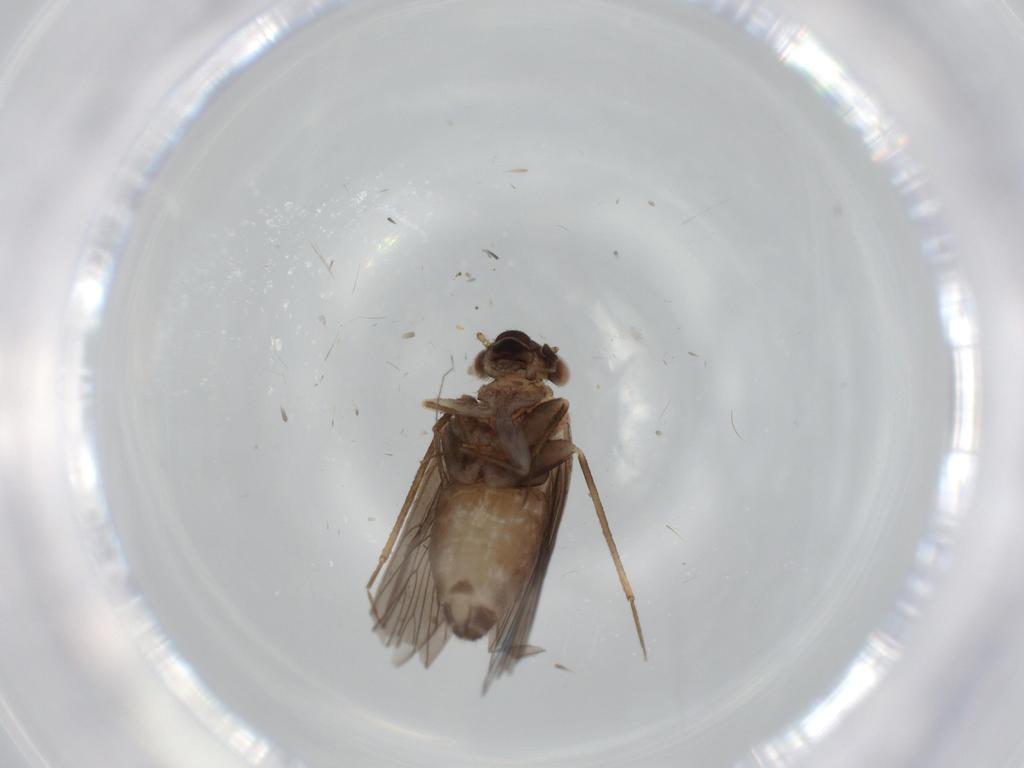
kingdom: Animalia
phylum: Arthropoda
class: Insecta
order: Psocodea
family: Lepidopsocidae
